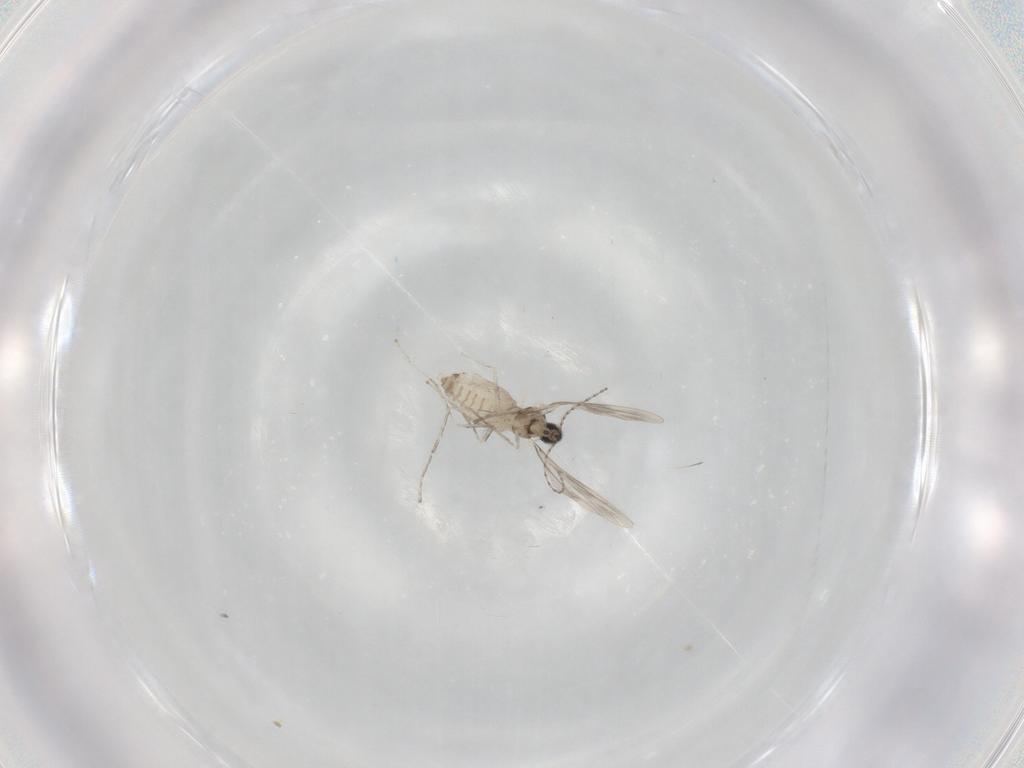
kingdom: Animalia
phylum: Arthropoda
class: Insecta
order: Diptera
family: Cecidomyiidae
